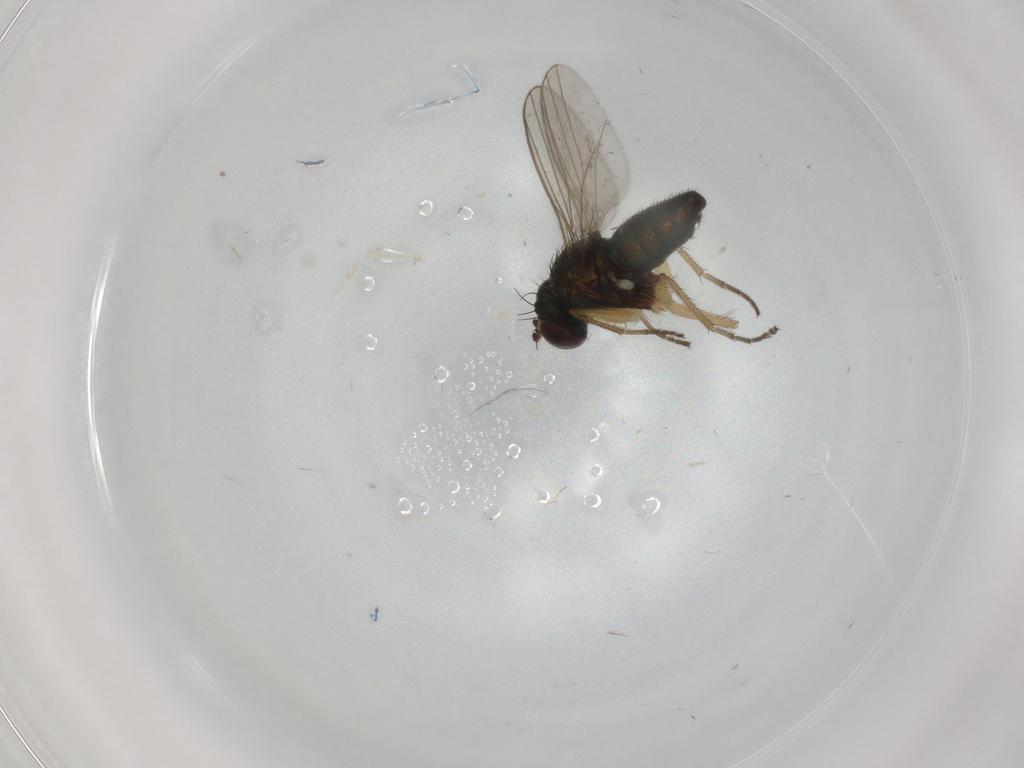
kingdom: Animalia
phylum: Arthropoda
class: Insecta
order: Diptera
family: Dolichopodidae
